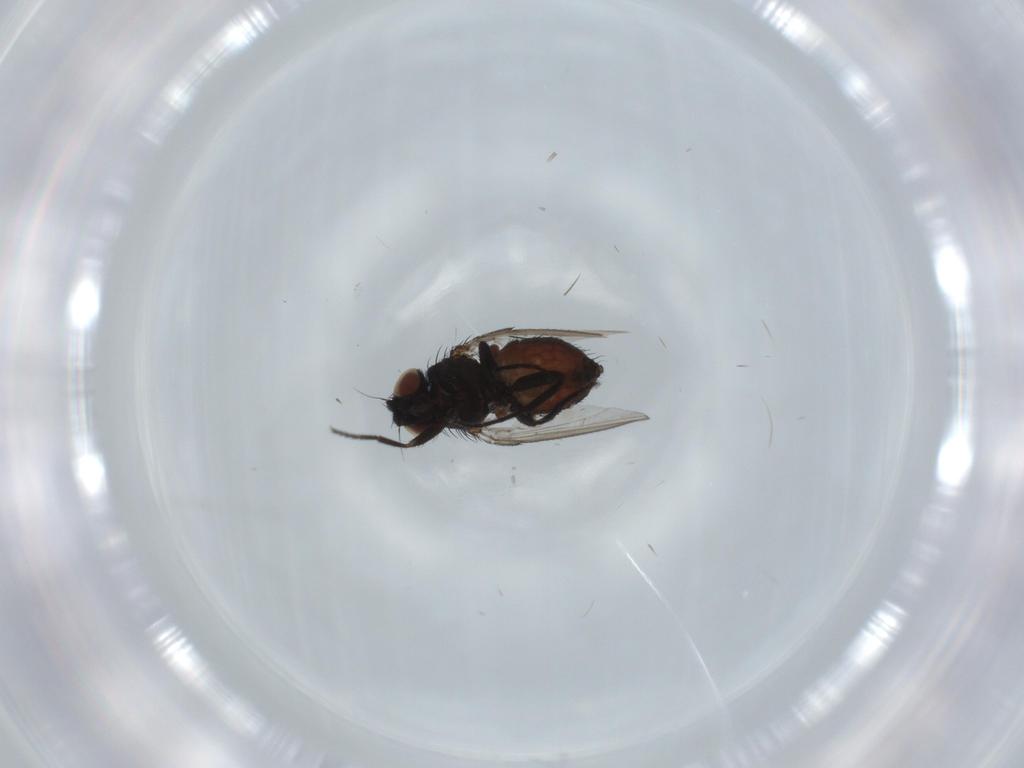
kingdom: Animalia
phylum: Arthropoda
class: Insecta
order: Diptera
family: Milichiidae
